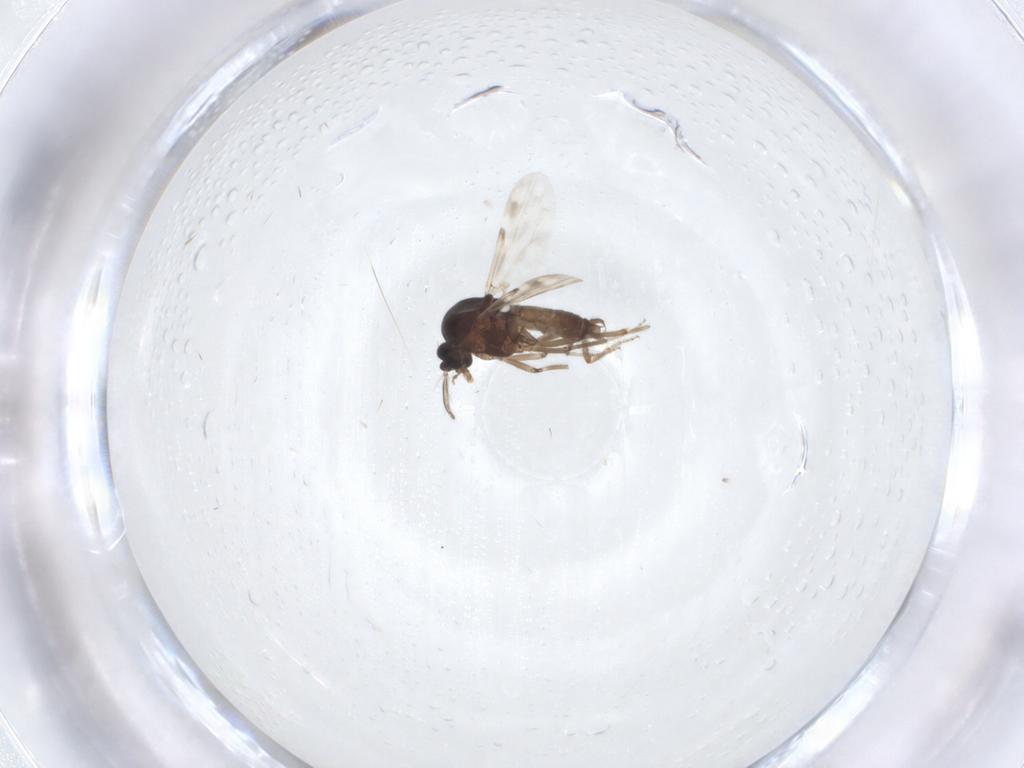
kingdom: Animalia
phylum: Arthropoda
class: Insecta
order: Diptera
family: Ceratopogonidae
